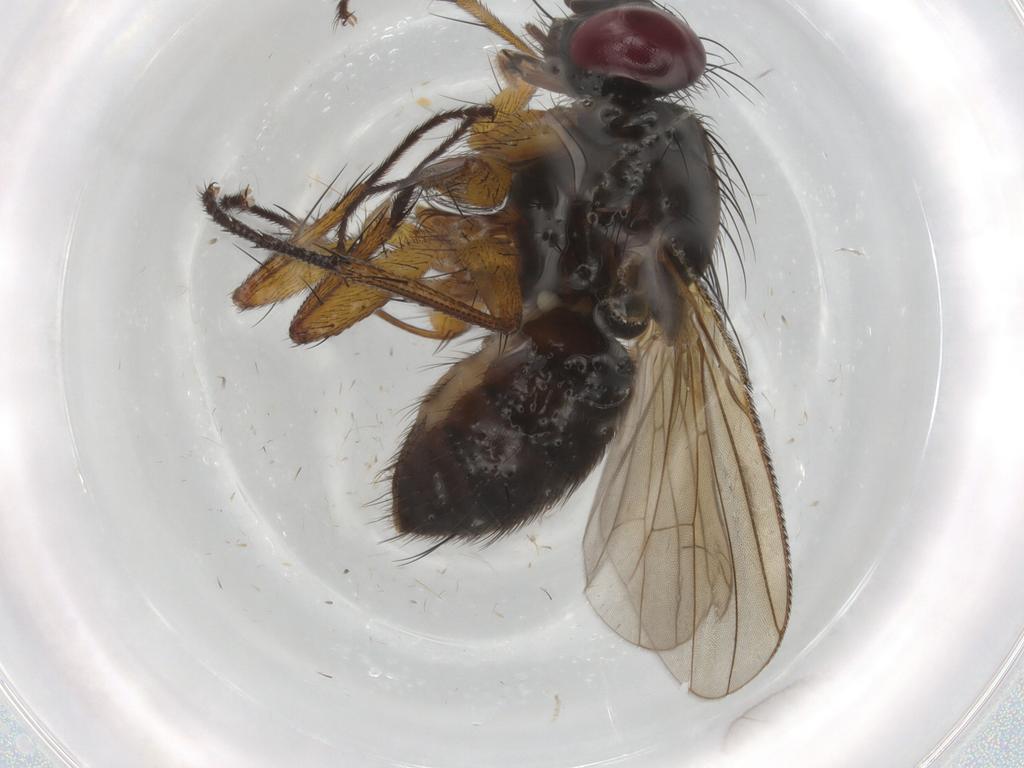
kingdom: Animalia
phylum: Arthropoda
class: Insecta
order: Diptera
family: Muscidae
